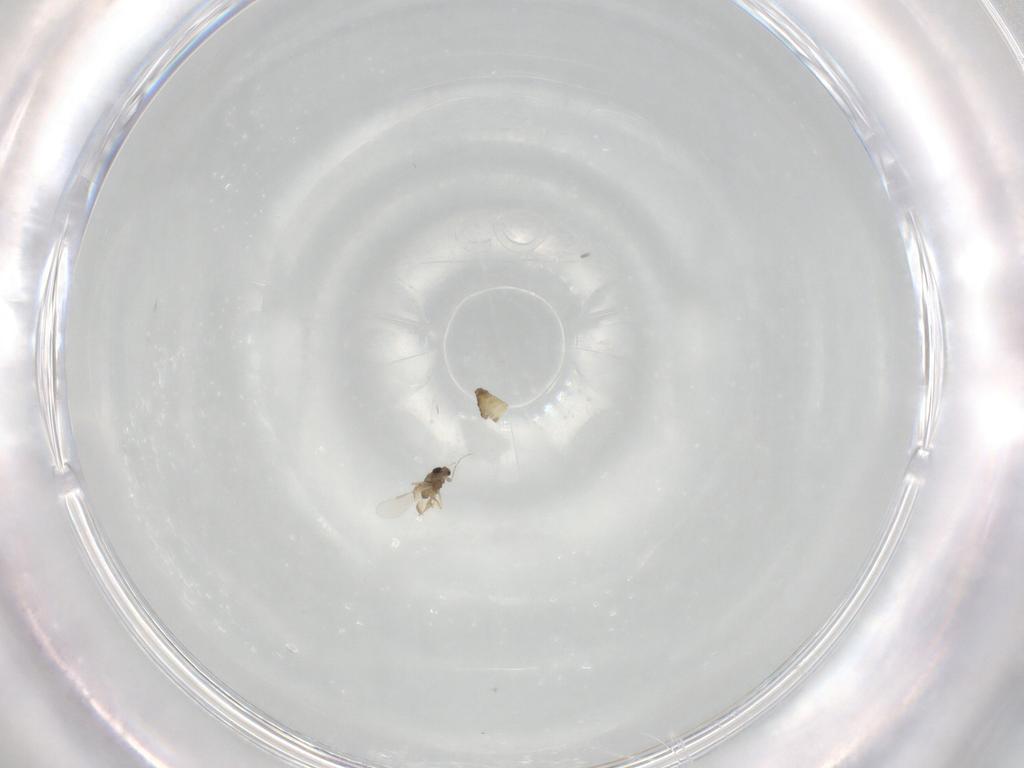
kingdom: Animalia
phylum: Arthropoda
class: Insecta
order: Diptera
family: Chironomidae
